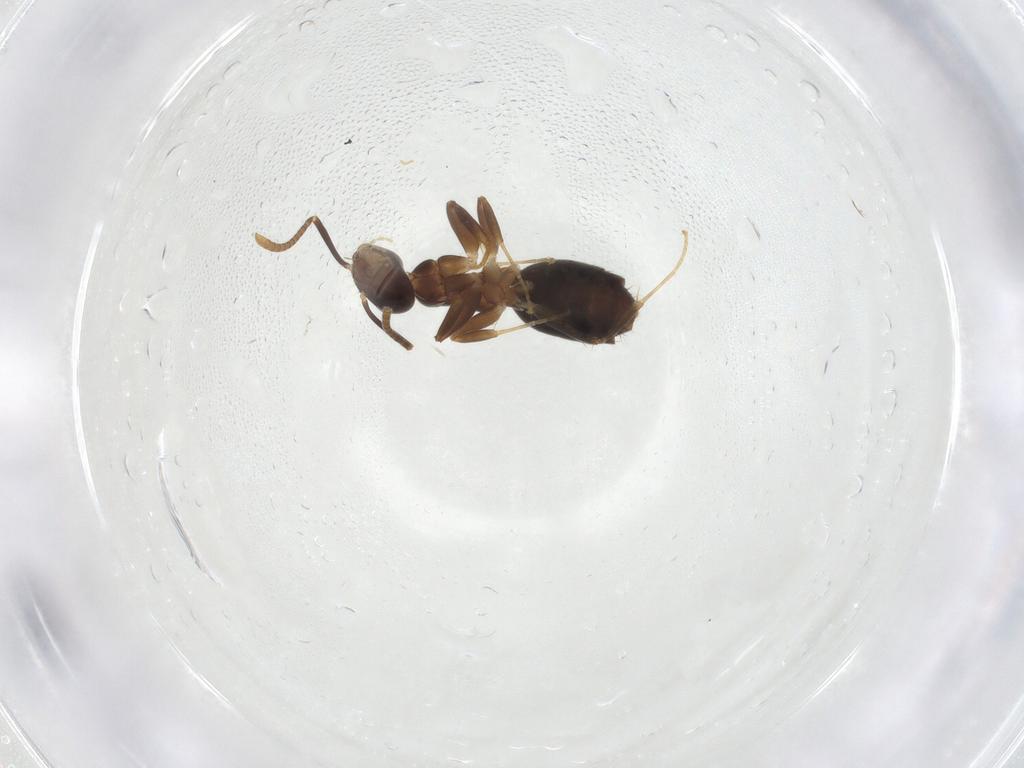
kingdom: Animalia
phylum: Arthropoda
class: Insecta
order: Hymenoptera
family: Formicidae
